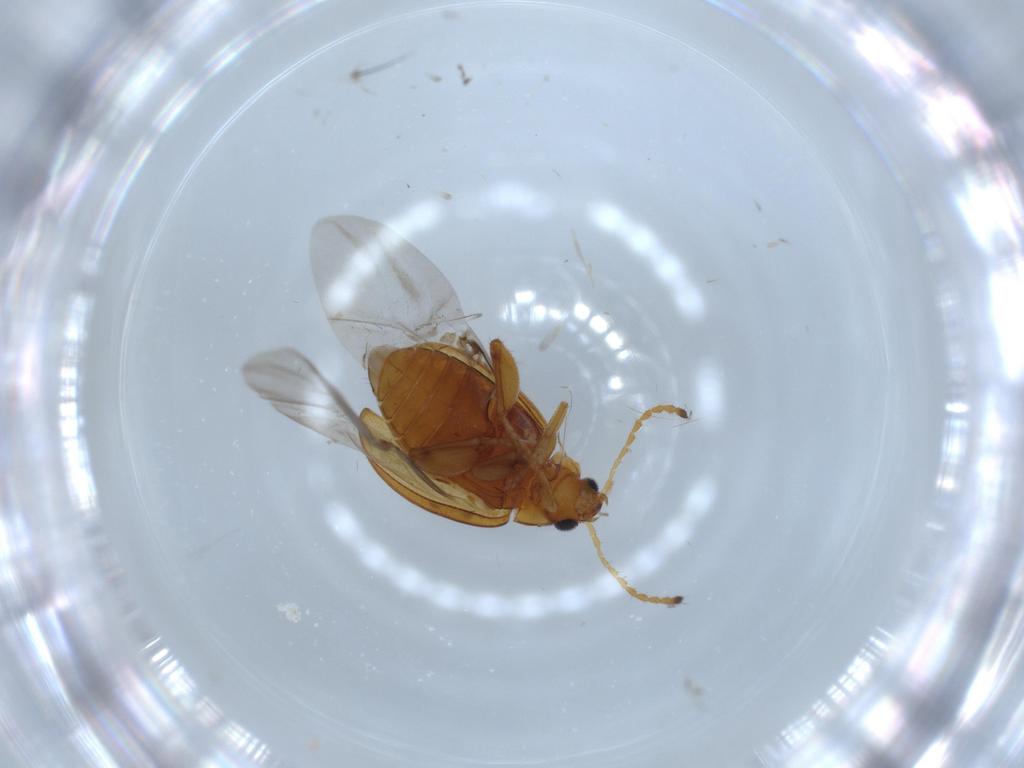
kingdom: Animalia
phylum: Arthropoda
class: Insecta
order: Coleoptera
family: Chrysomelidae
